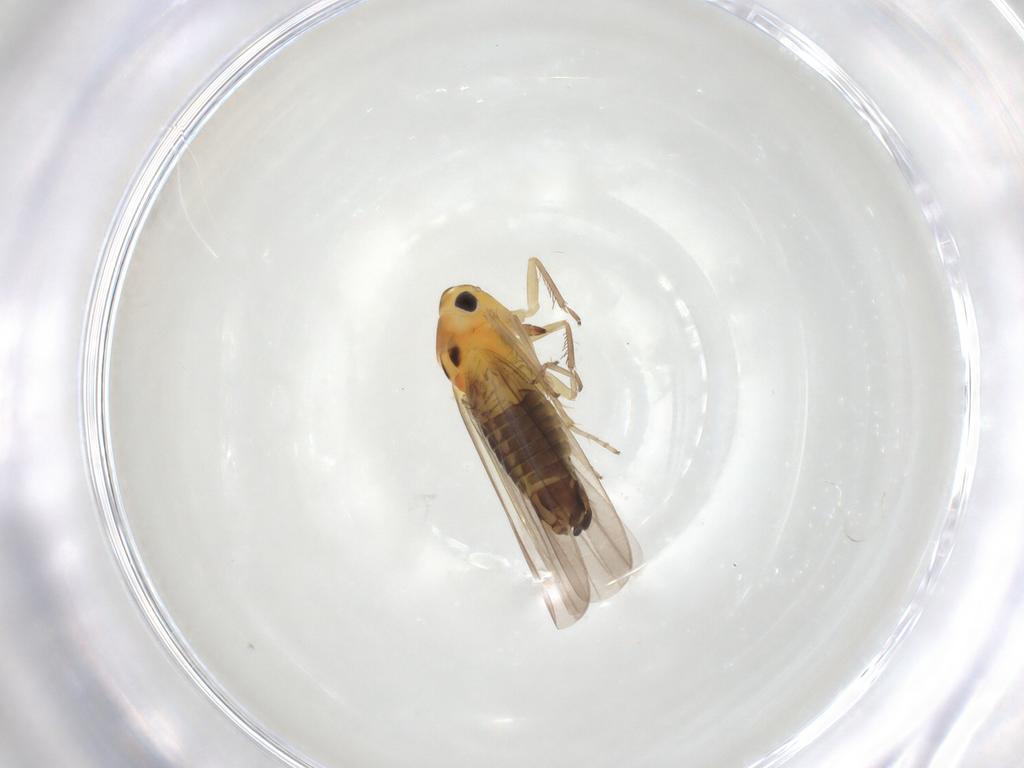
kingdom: Animalia
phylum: Arthropoda
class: Insecta
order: Hemiptera
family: Cicadellidae
